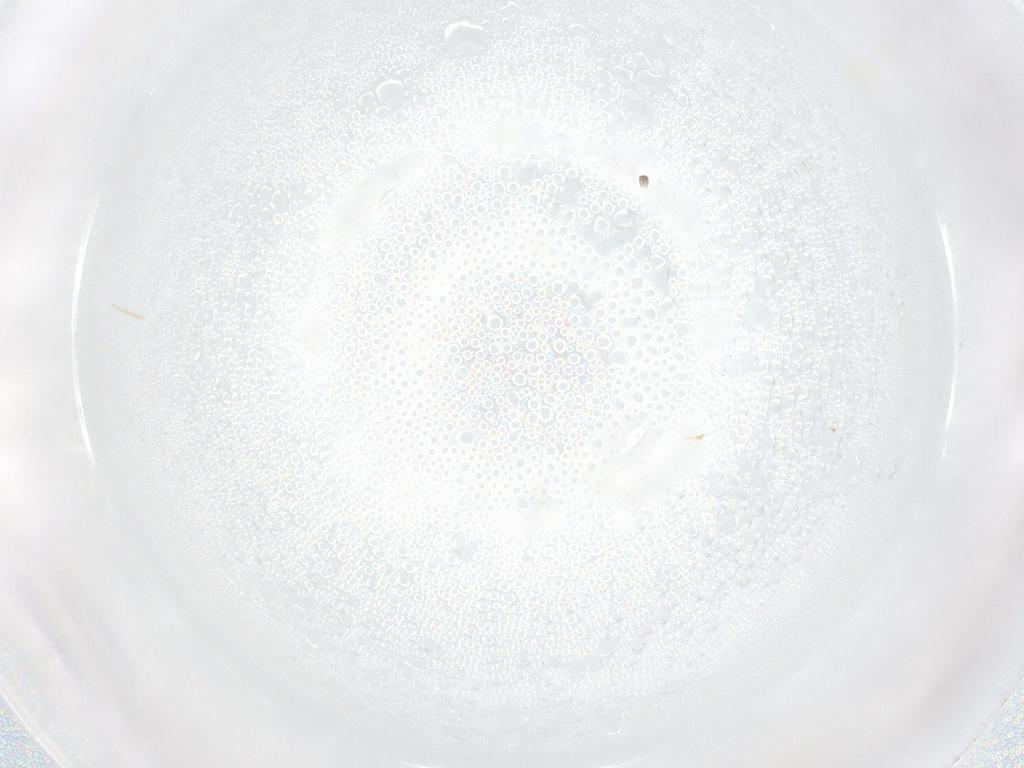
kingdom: Animalia
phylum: Arthropoda
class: Arachnida
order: Mesostigmata
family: Phytoseiidae
